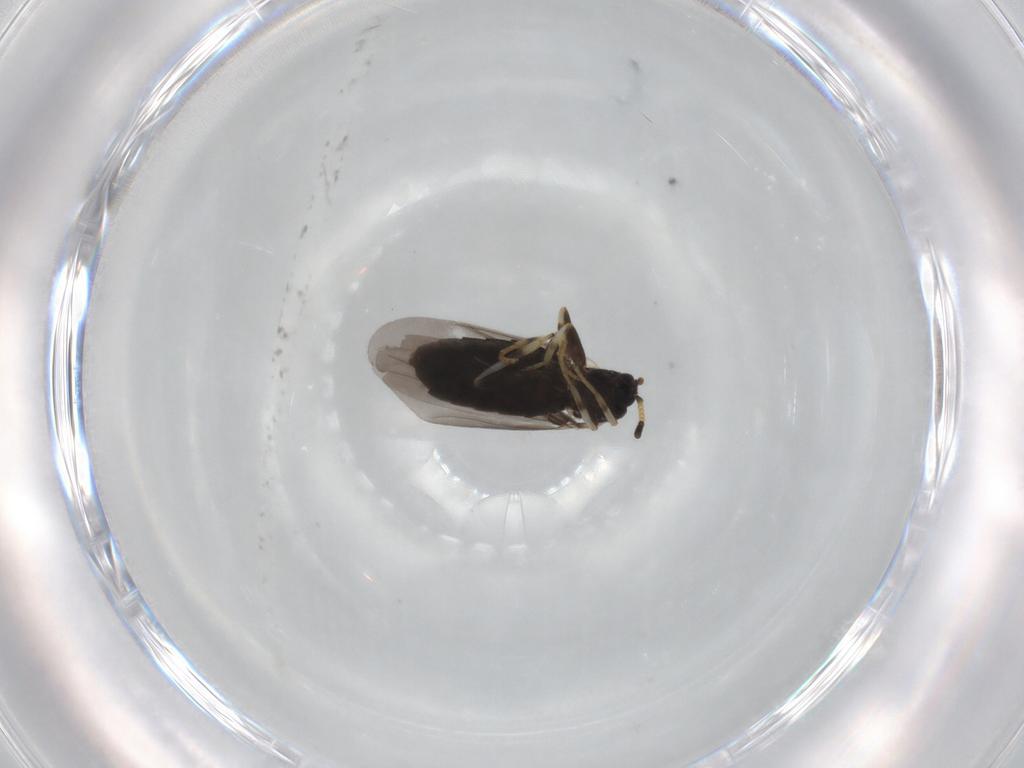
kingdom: Animalia
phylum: Arthropoda
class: Insecta
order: Diptera
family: Scatopsidae
